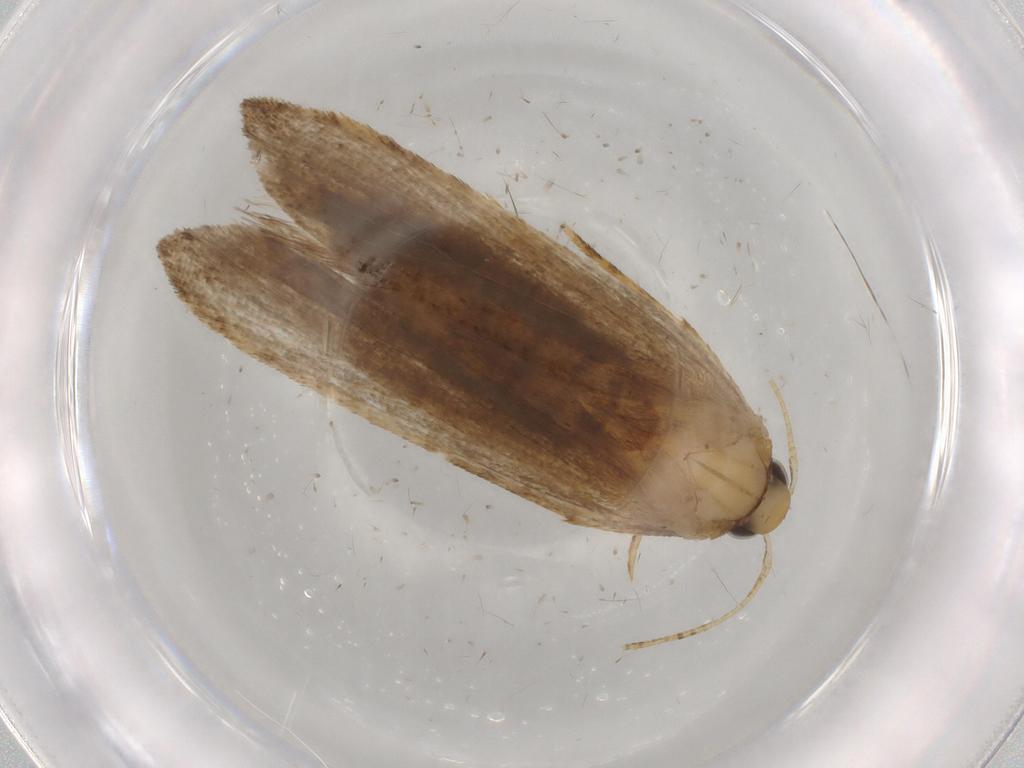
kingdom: Animalia
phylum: Arthropoda
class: Insecta
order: Lepidoptera
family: Autostichidae
